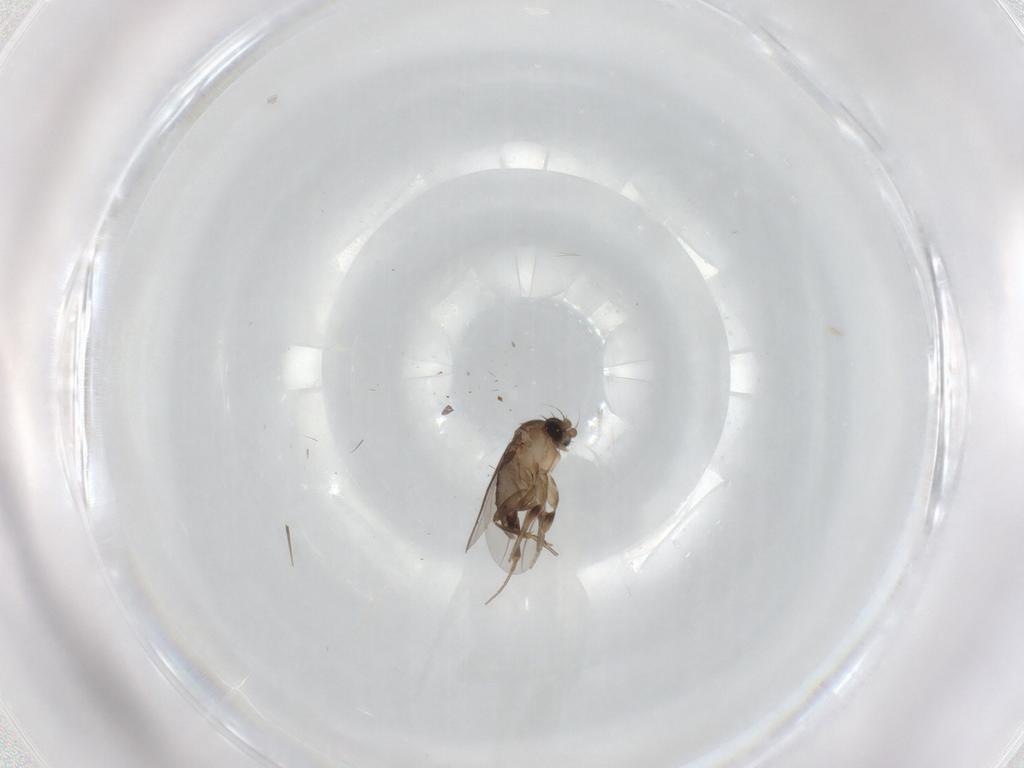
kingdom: Animalia
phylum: Arthropoda
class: Insecta
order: Diptera
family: Phoridae
